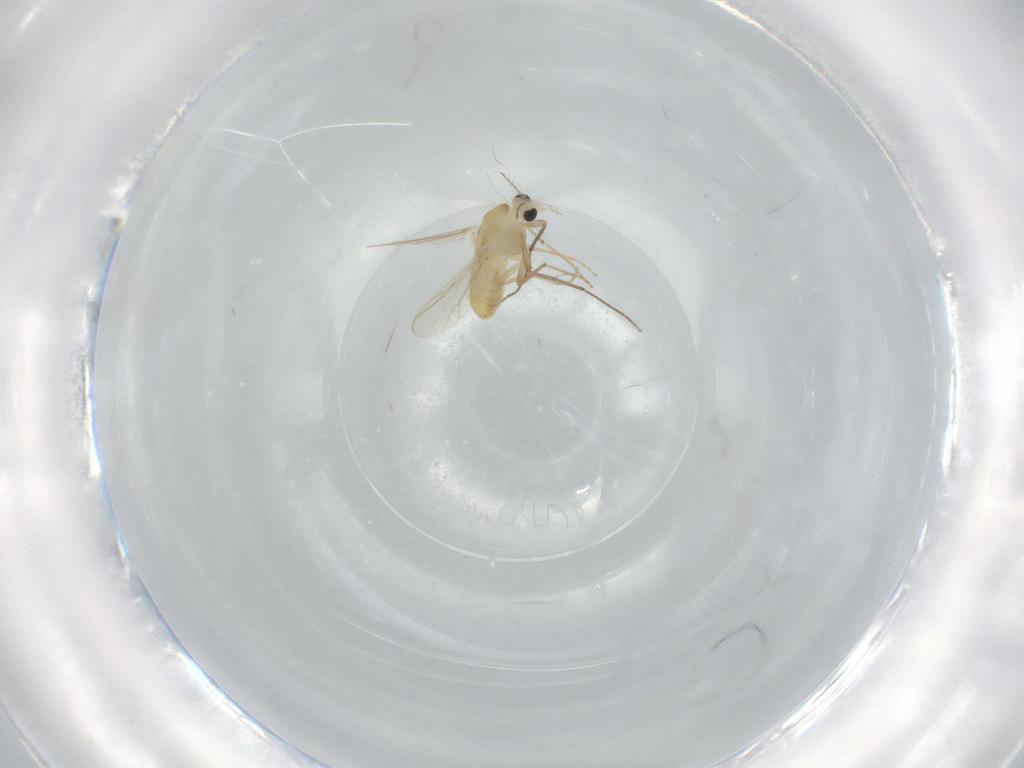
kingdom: Animalia
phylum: Arthropoda
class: Insecta
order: Diptera
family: Chironomidae
